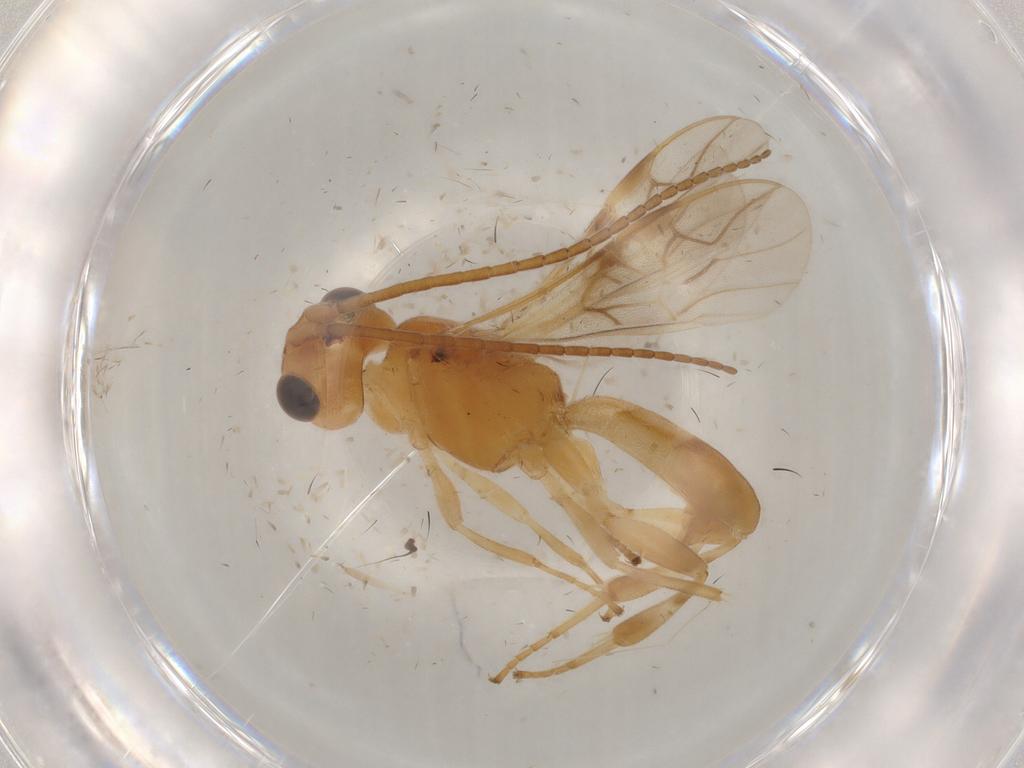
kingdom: Animalia
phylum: Arthropoda
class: Insecta
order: Hymenoptera
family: Braconidae
